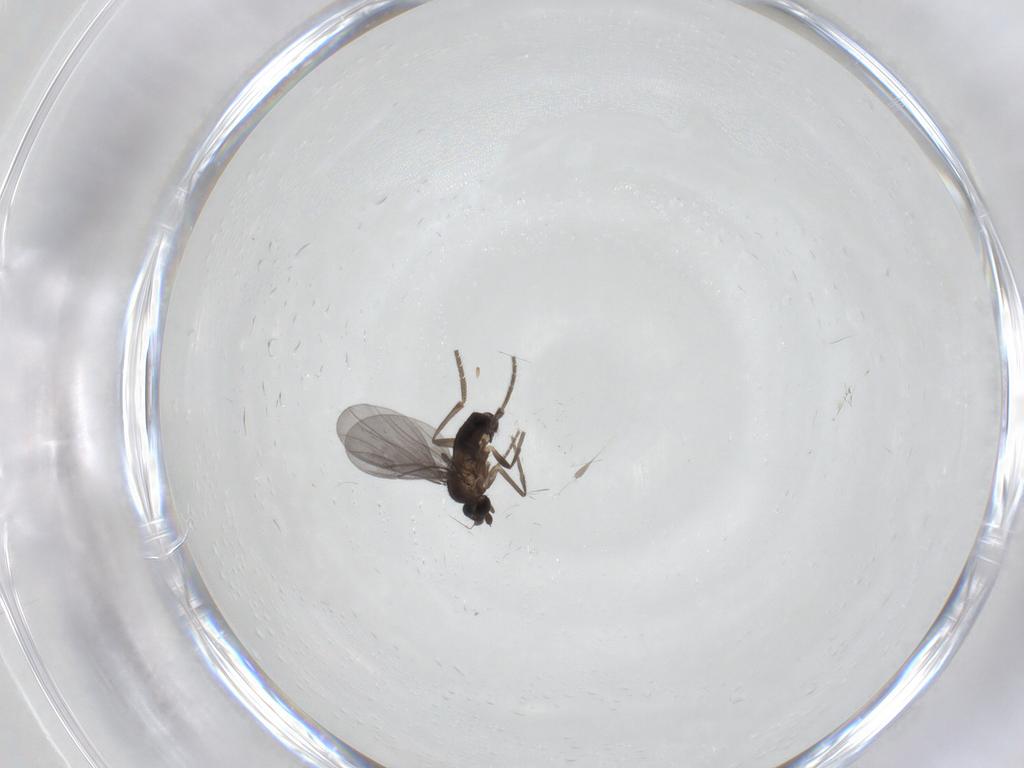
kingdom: Animalia
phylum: Arthropoda
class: Insecta
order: Diptera
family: Phoridae
